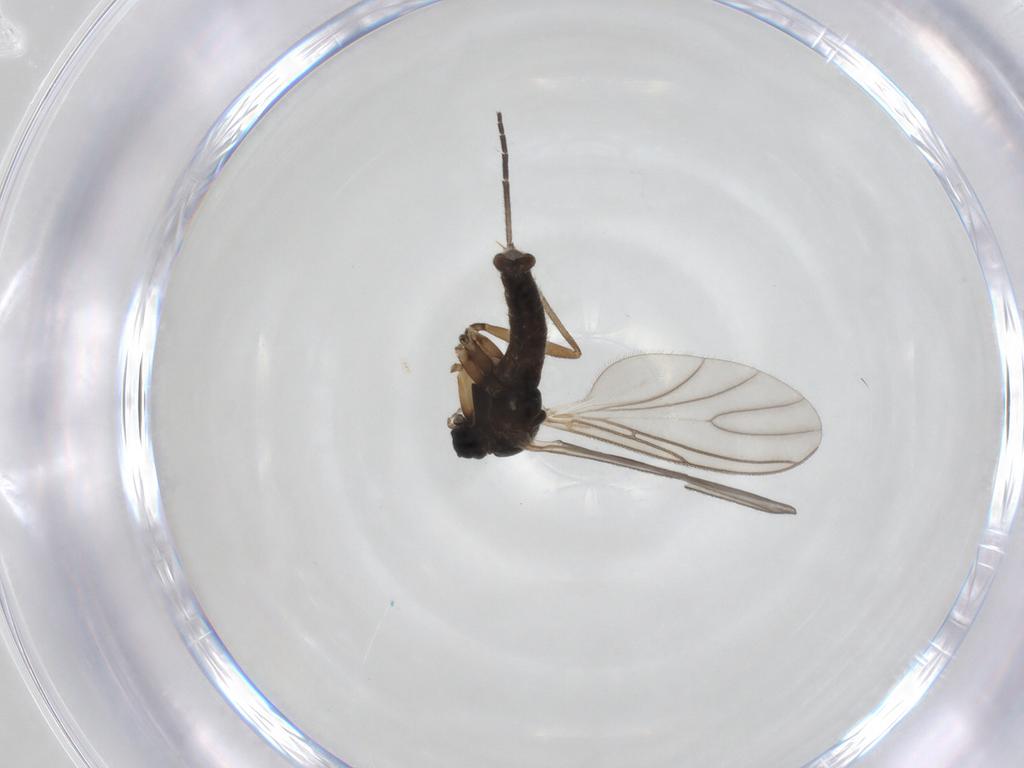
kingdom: Animalia
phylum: Arthropoda
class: Insecta
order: Diptera
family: Sciaridae
